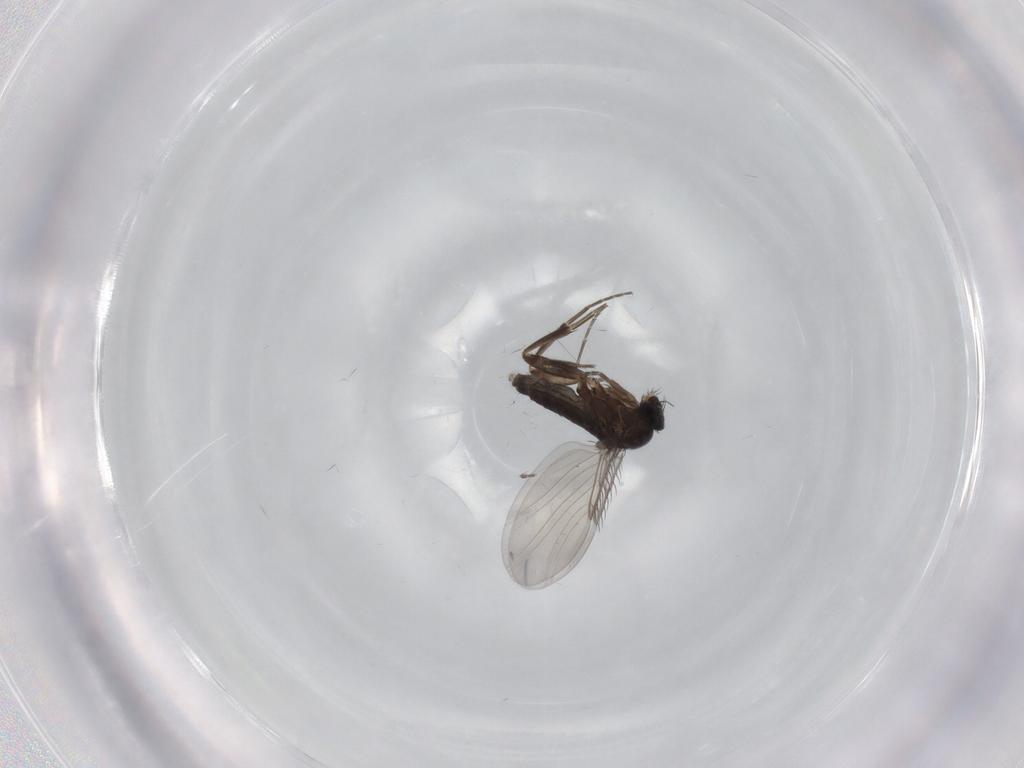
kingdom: Animalia
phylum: Arthropoda
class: Insecta
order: Diptera
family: Phoridae
